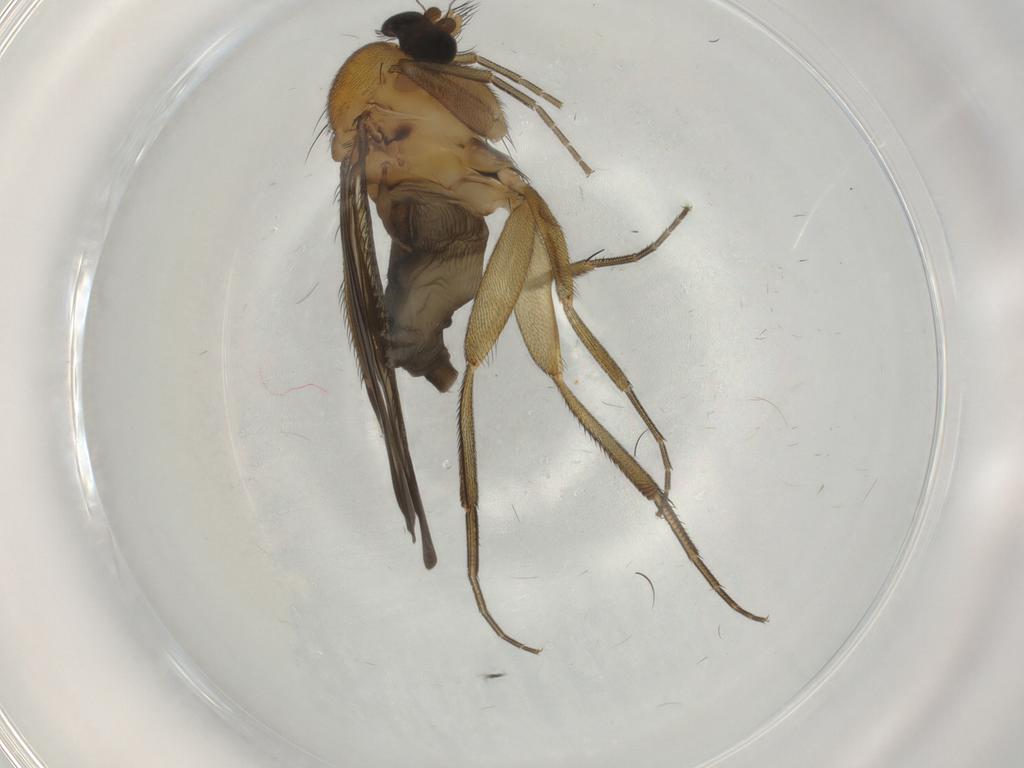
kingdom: Animalia
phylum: Arthropoda
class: Insecta
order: Diptera
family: Phoridae
